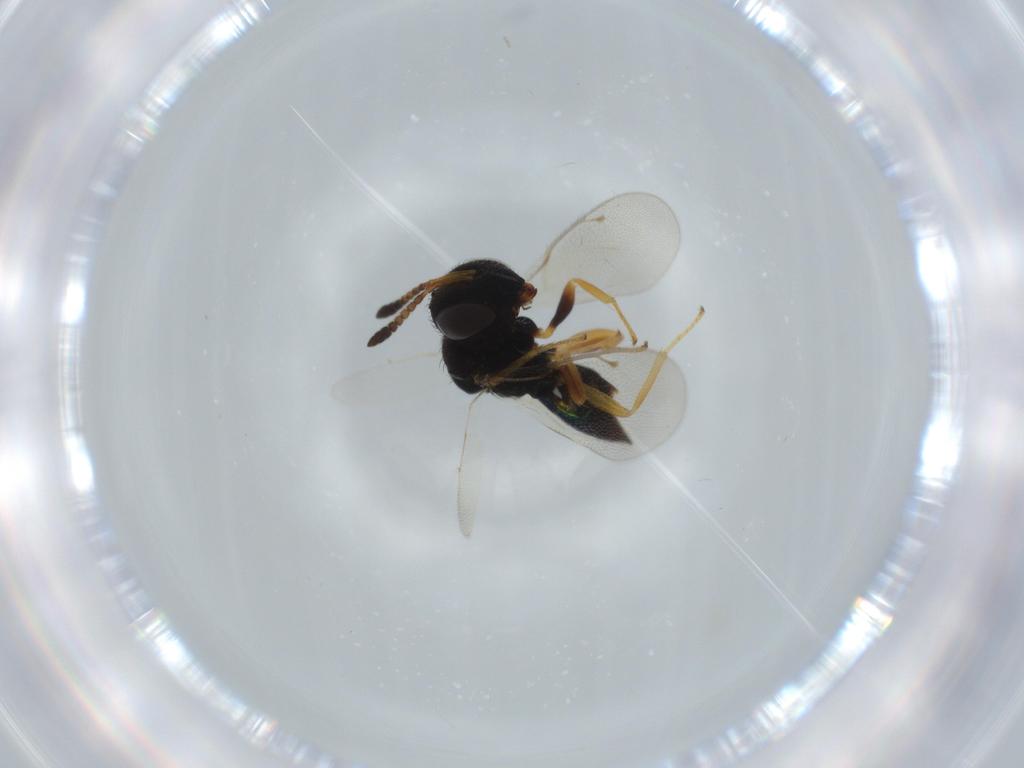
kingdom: Animalia
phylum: Arthropoda
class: Insecta
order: Hymenoptera
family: Pteromalidae
